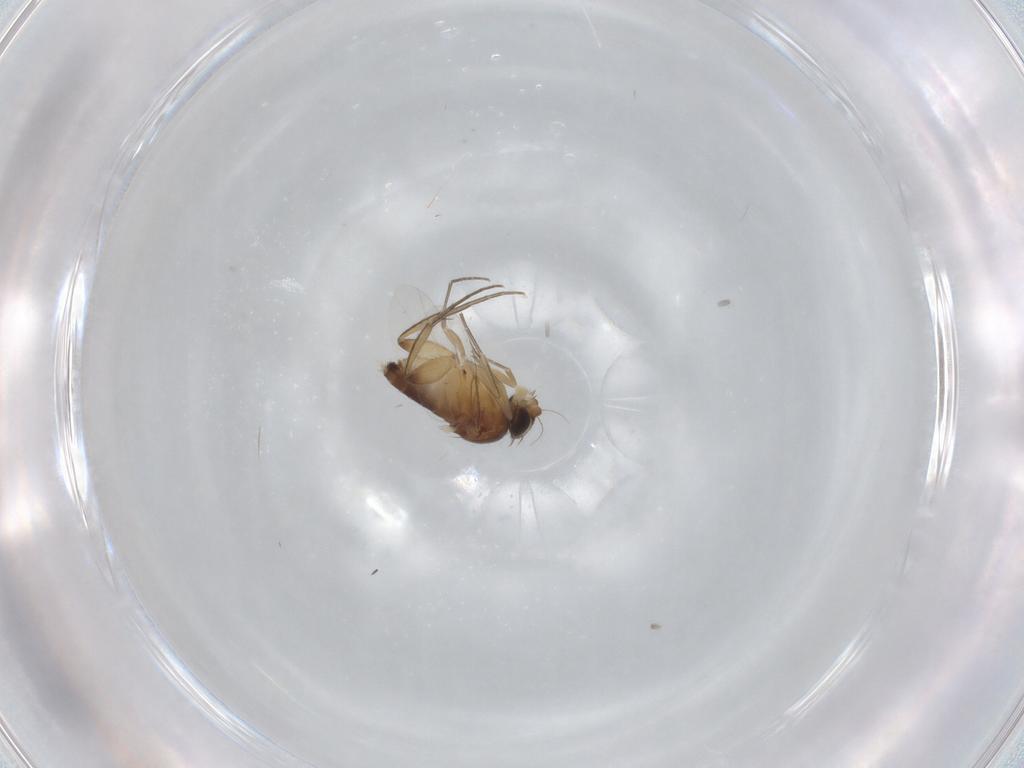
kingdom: Animalia
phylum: Arthropoda
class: Insecta
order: Diptera
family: Phoridae
